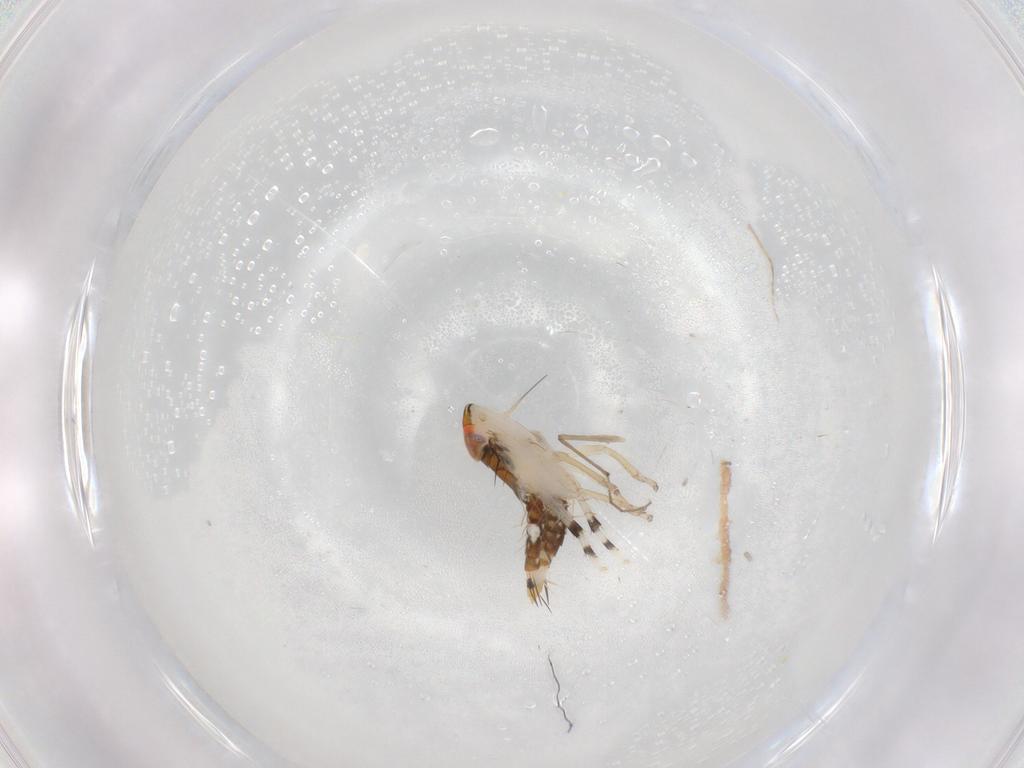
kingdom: Animalia
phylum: Arthropoda
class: Insecta
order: Hemiptera
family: Cicadellidae
